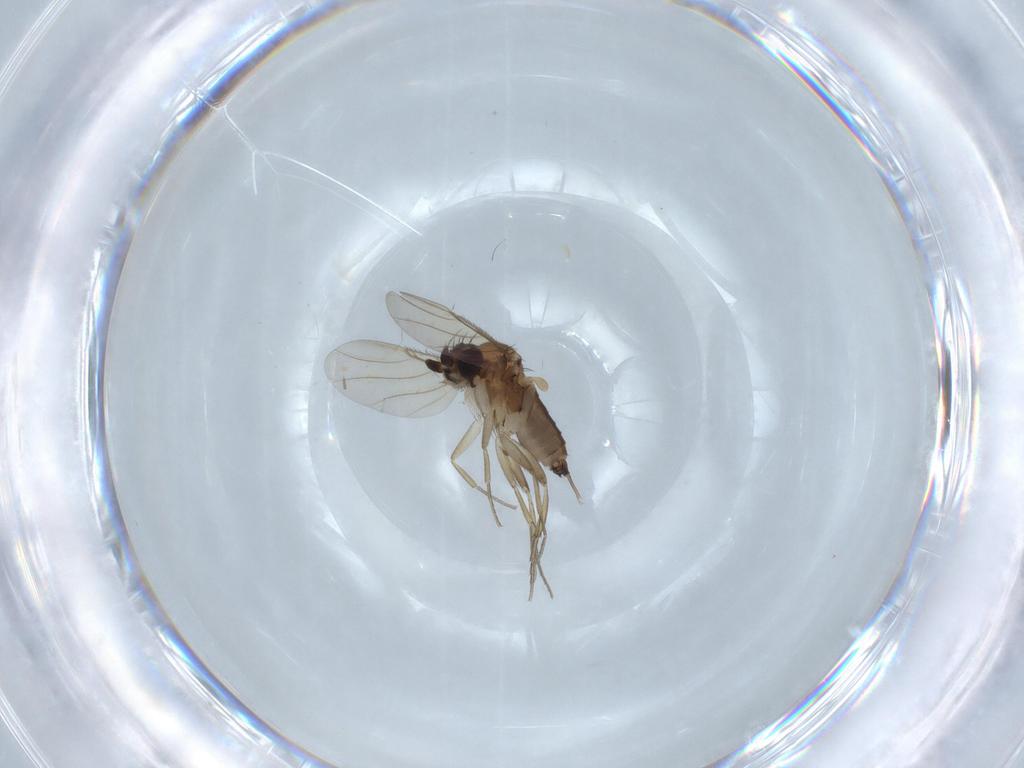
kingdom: Animalia
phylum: Arthropoda
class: Insecta
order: Diptera
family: Phoridae
